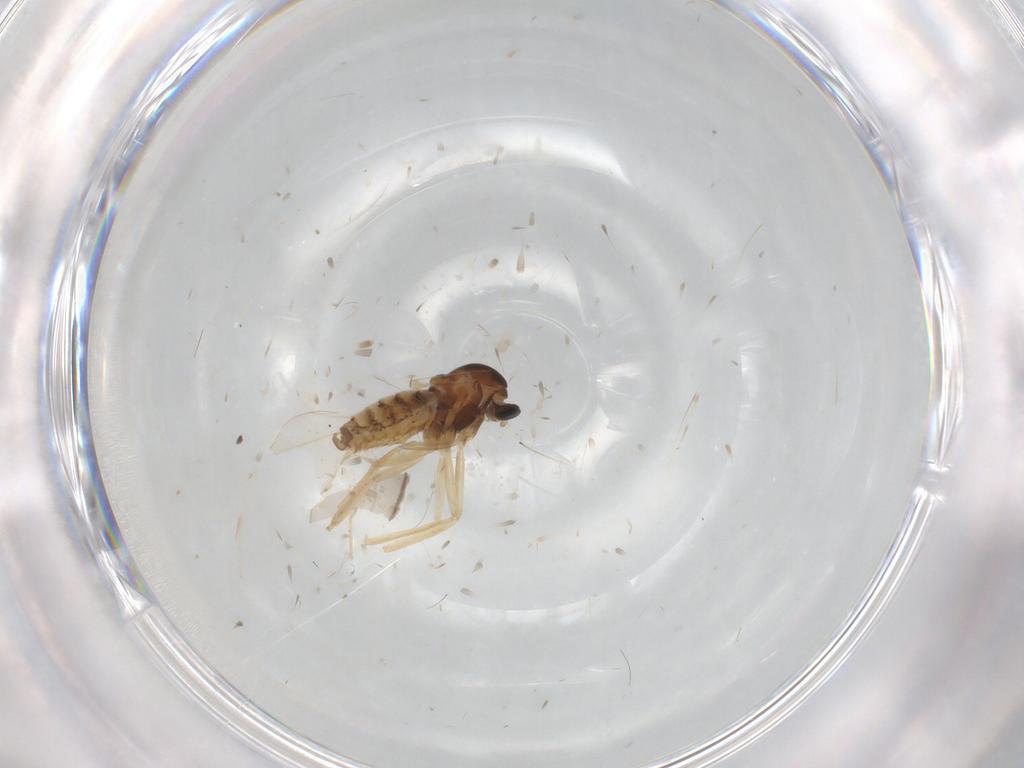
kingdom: Animalia
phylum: Arthropoda
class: Insecta
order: Diptera
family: Cecidomyiidae
